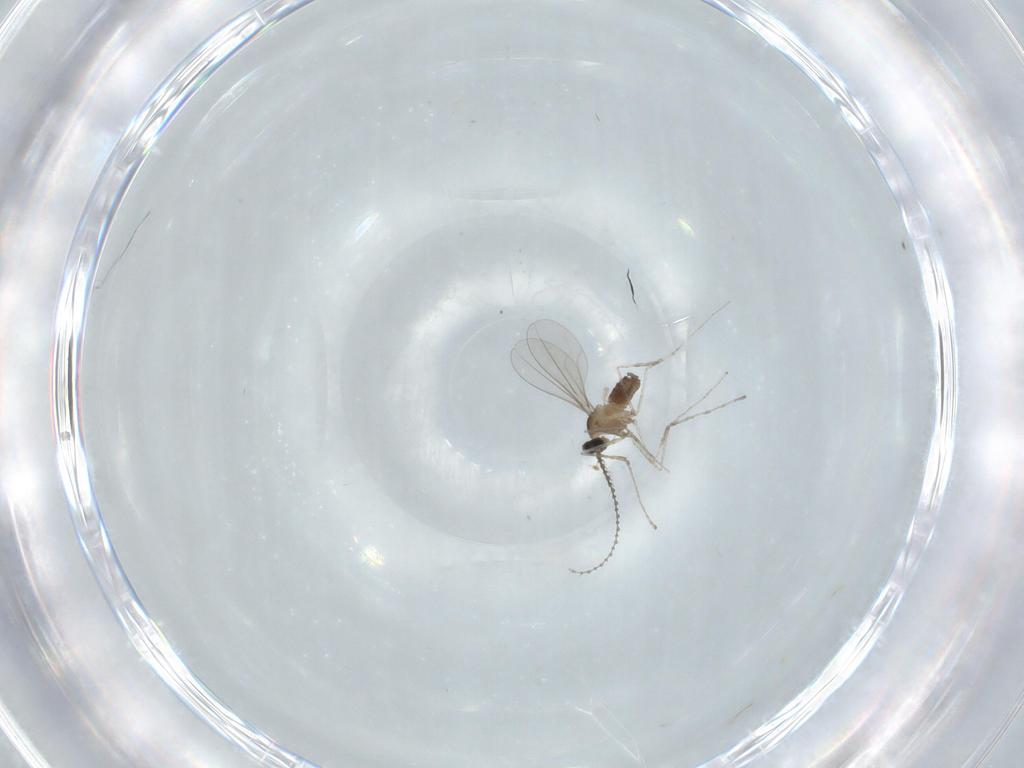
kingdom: Animalia
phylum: Arthropoda
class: Insecta
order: Diptera
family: Cecidomyiidae
